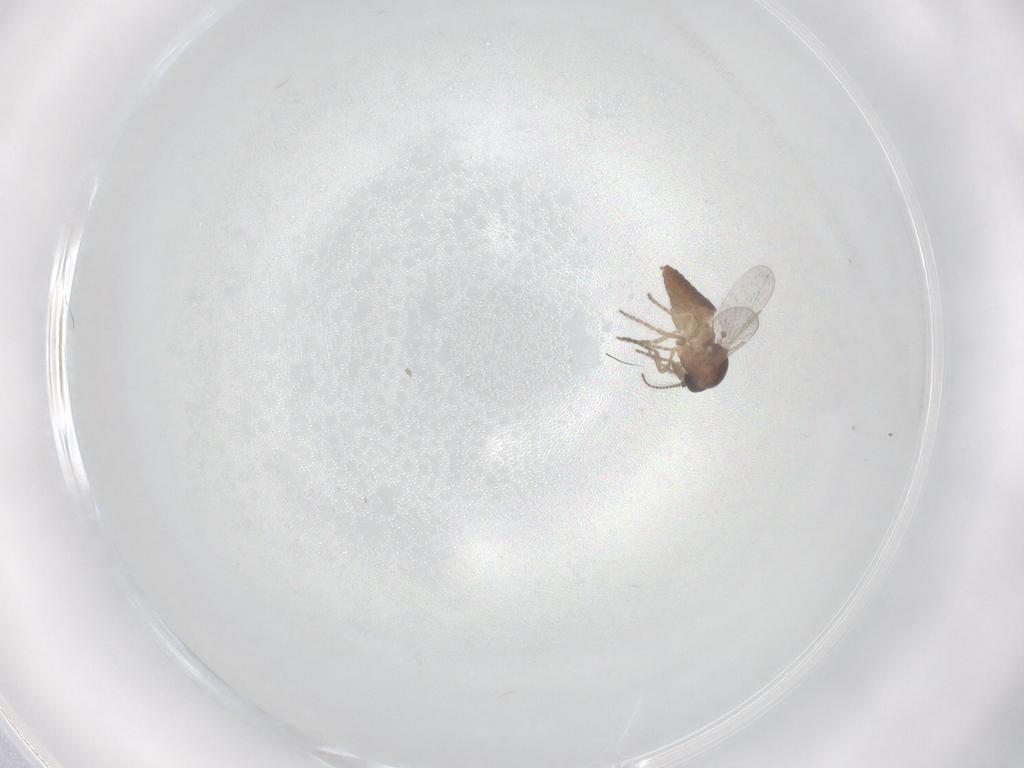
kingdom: Animalia
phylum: Arthropoda
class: Insecta
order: Diptera
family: Ceratopogonidae
